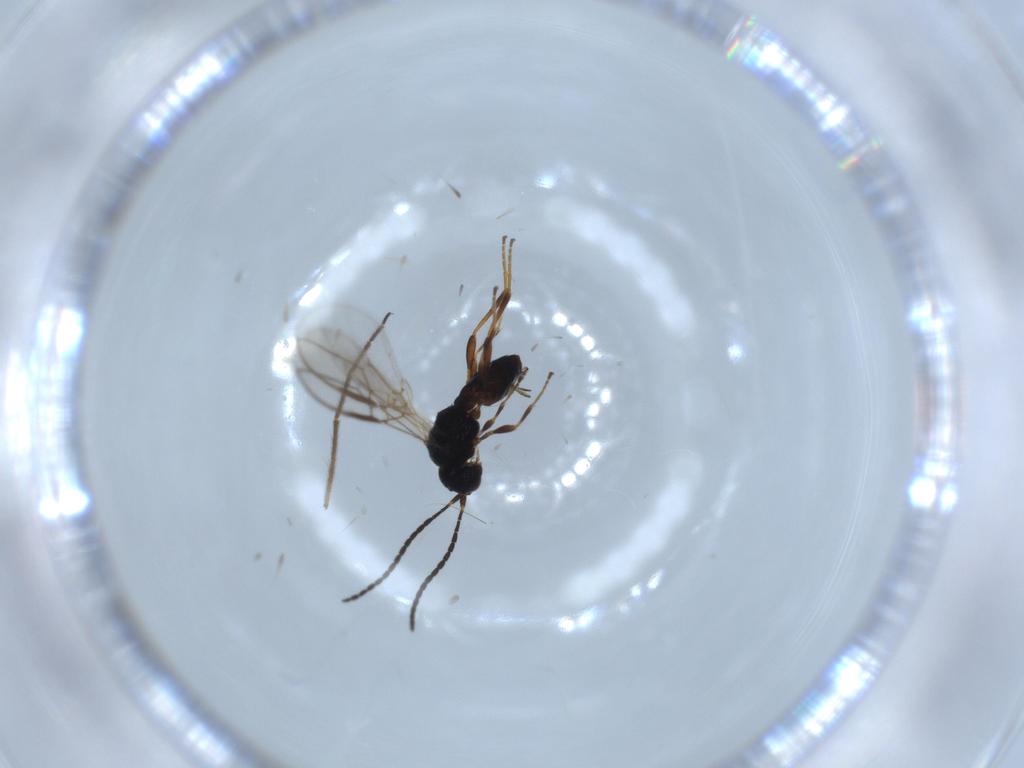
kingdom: Animalia
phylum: Arthropoda
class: Insecta
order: Hymenoptera
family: Braconidae
